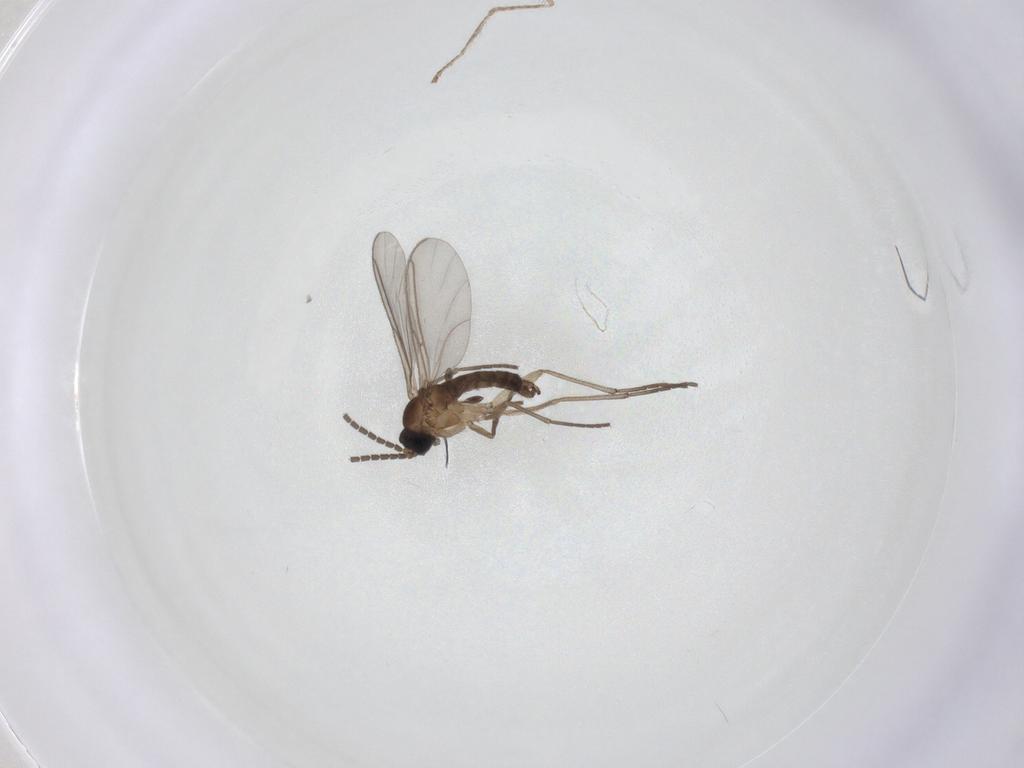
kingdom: Animalia
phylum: Arthropoda
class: Insecta
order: Diptera
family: Sciaridae
